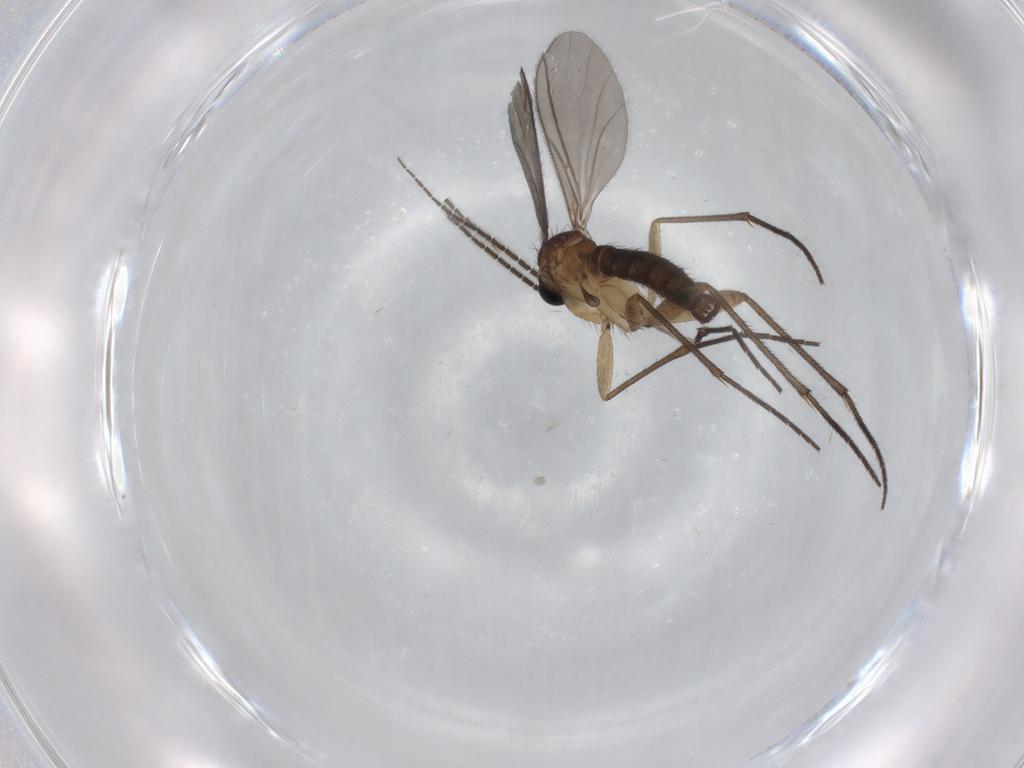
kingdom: Animalia
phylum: Arthropoda
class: Insecta
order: Diptera
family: Sciaridae
